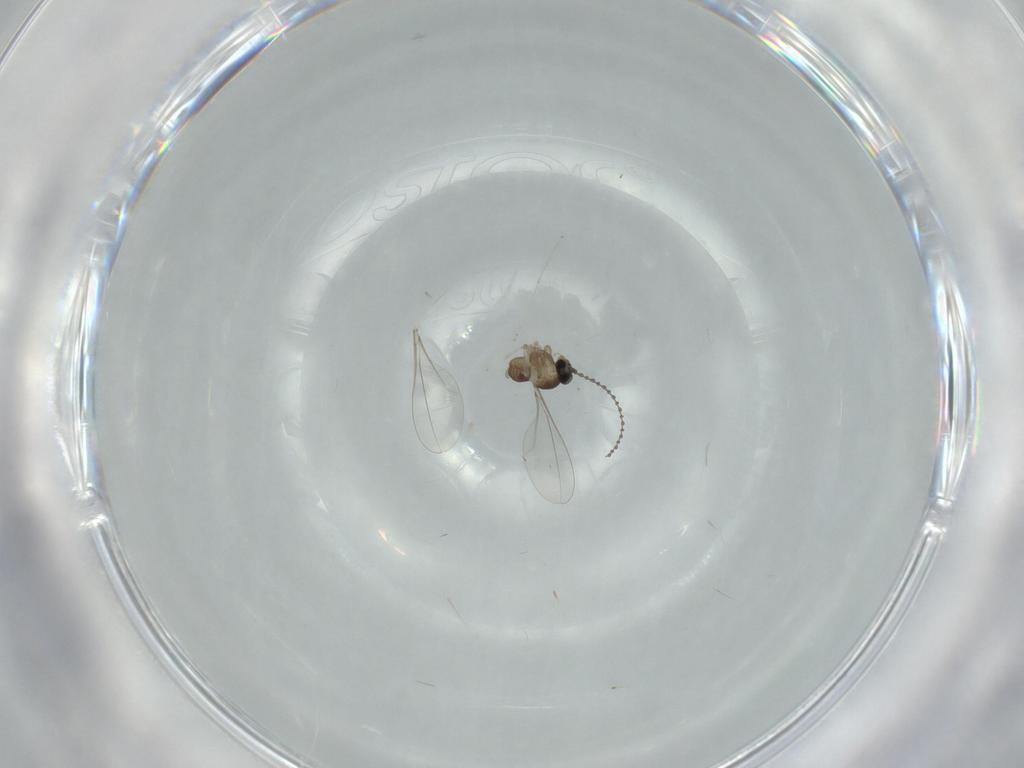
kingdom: Animalia
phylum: Arthropoda
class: Insecta
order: Diptera
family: Cecidomyiidae
